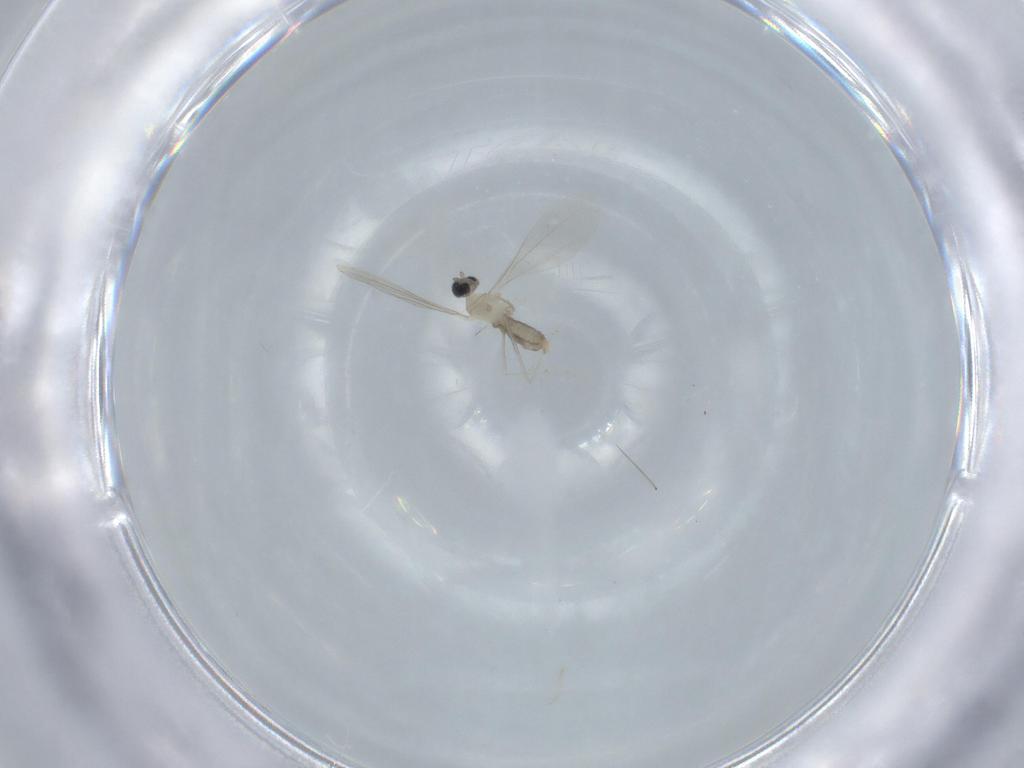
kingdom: Animalia
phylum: Arthropoda
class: Insecta
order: Diptera
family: Cecidomyiidae
